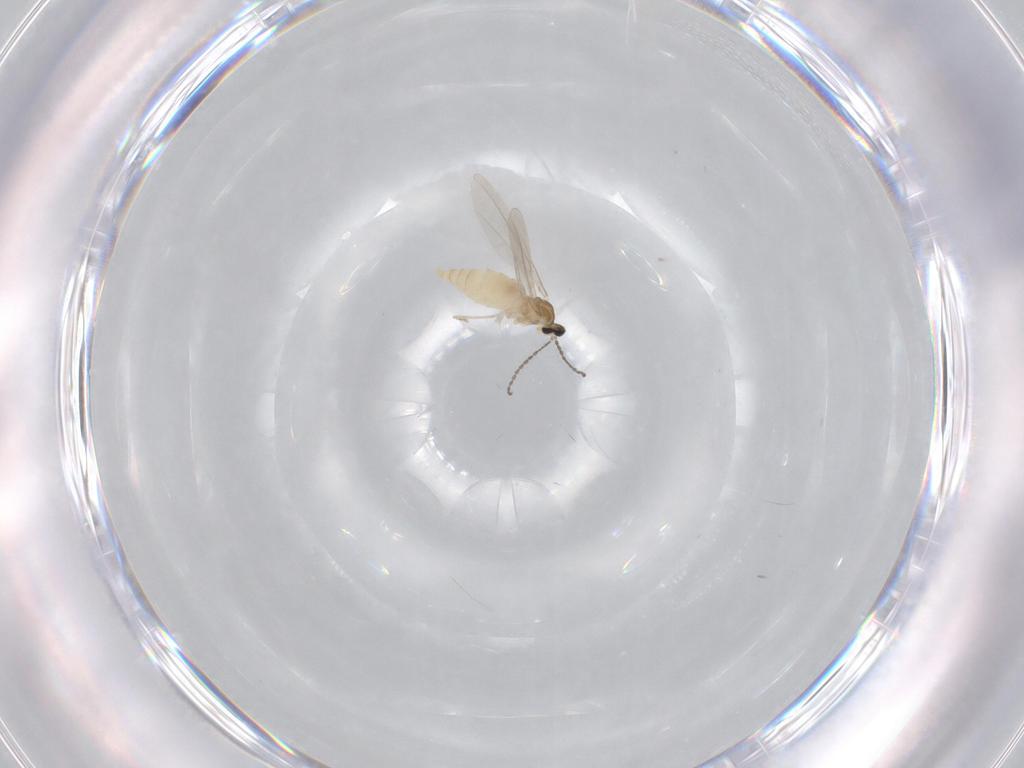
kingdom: Animalia
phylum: Arthropoda
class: Insecta
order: Diptera
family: Cecidomyiidae
